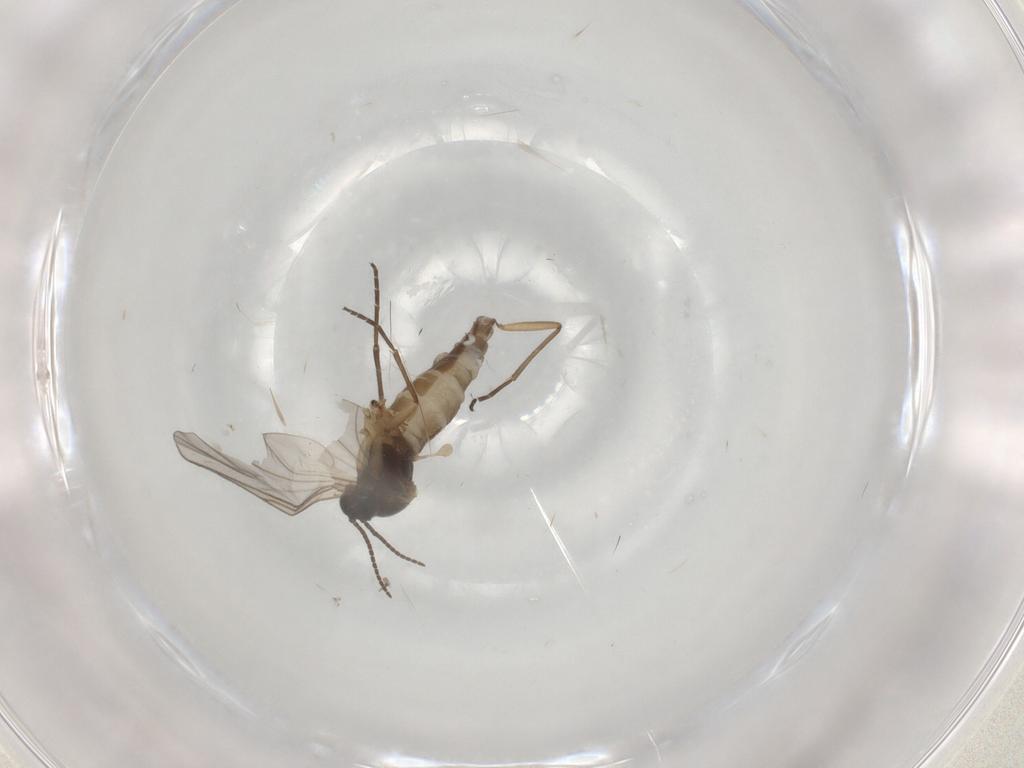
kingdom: Animalia
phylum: Arthropoda
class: Insecta
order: Diptera
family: Sciaridae
